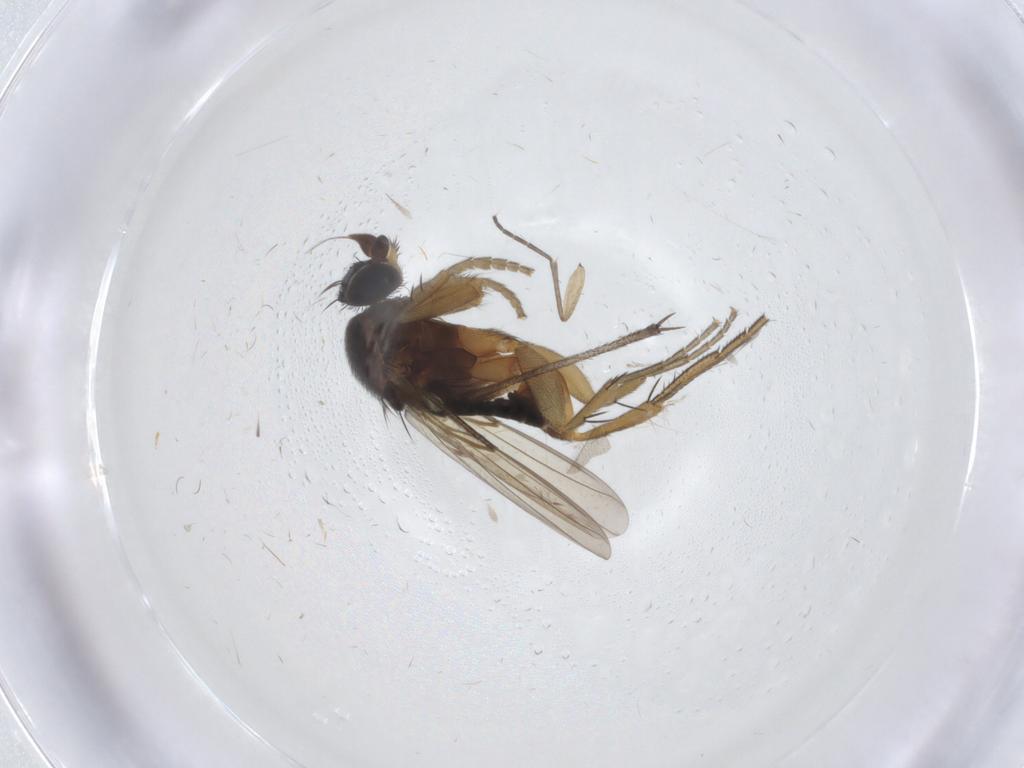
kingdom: Animalia
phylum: Arthropoda
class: Insecta
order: Diptera
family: Phoridae
